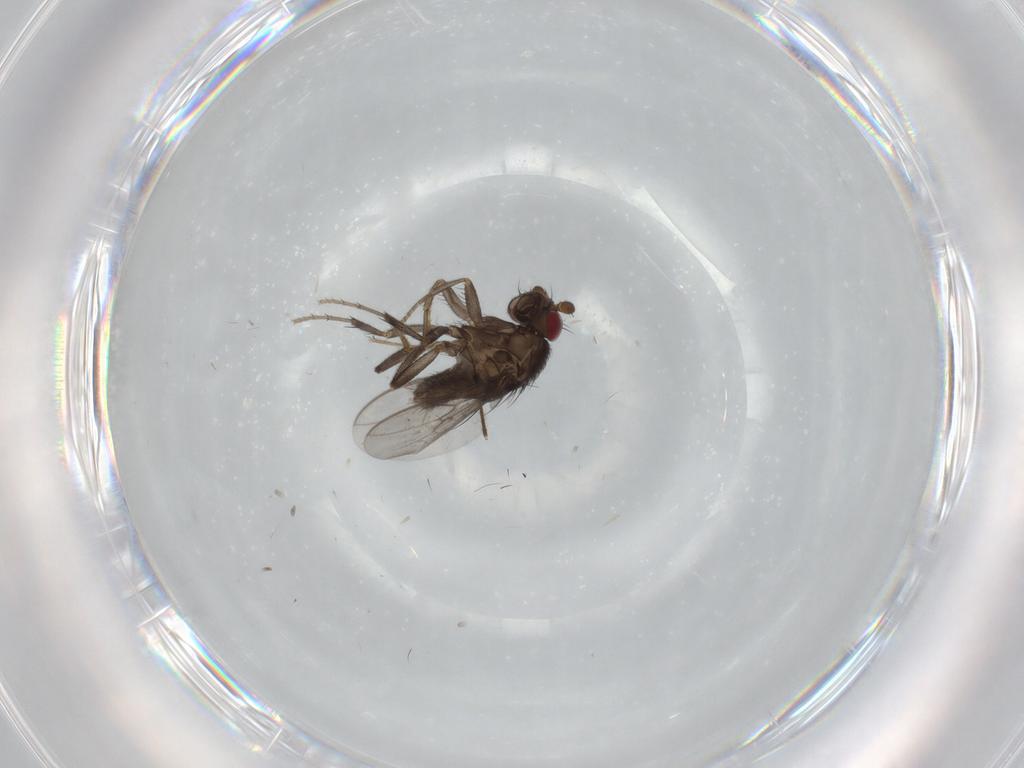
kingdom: Animalia
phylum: Arthropoda
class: Insecta
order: Diptera
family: Sphaeroceridae
